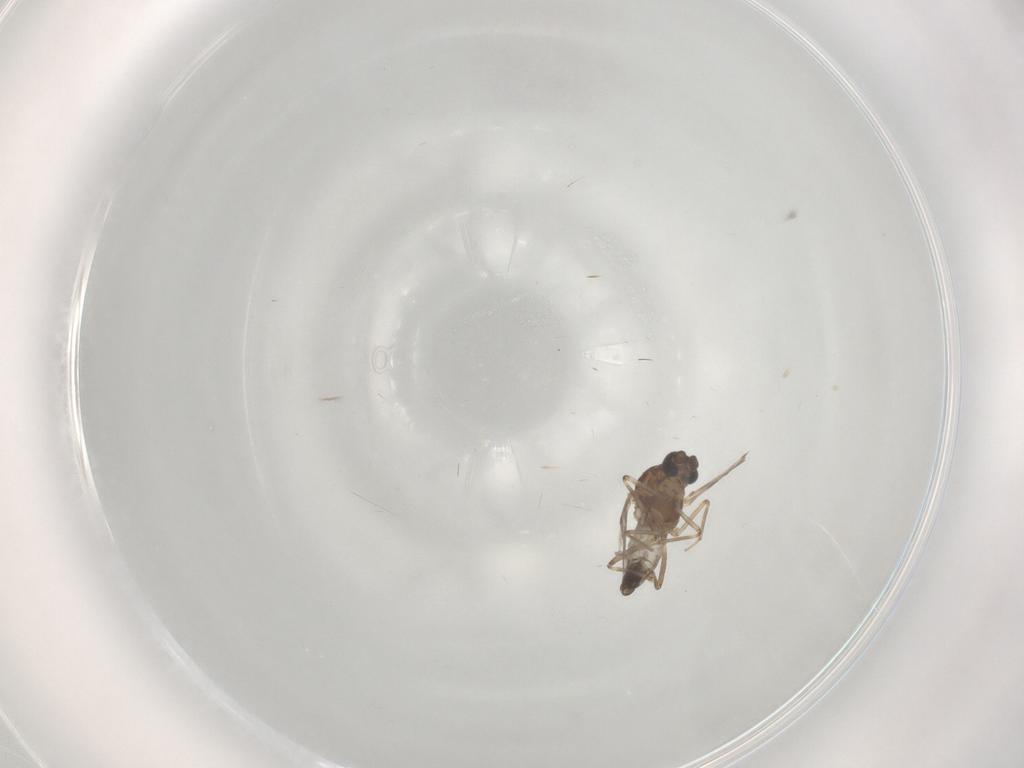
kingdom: Animalia
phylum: Arthropoda
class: Insecta
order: Diptera
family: Ceratopogonidae
